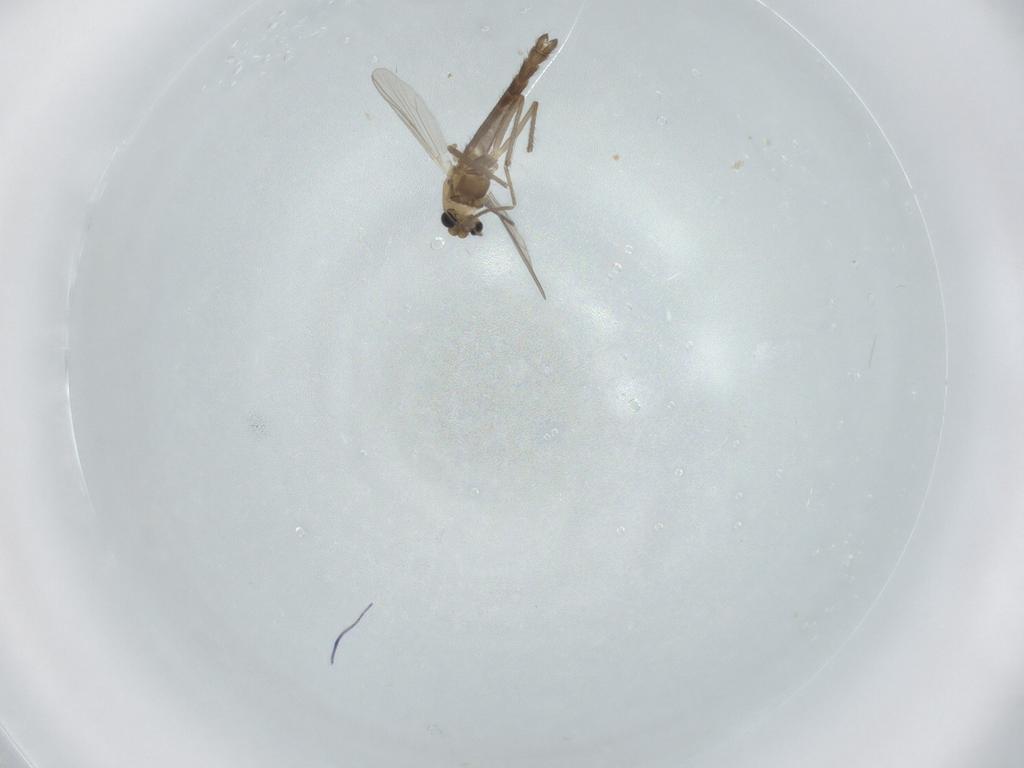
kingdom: Animalia
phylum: Arthropoda
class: Insecta
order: Diptera
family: Chironomidae
